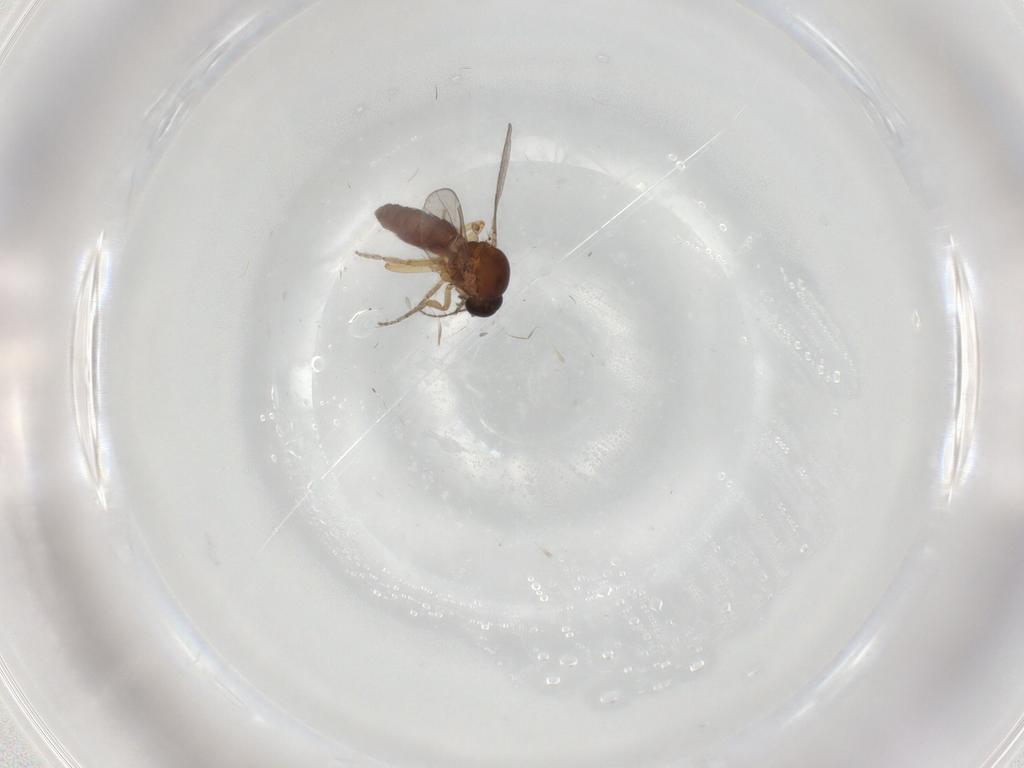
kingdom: Animalia
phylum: Arthropoda
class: Insecta
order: Diptera
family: Ceratopogonidae
